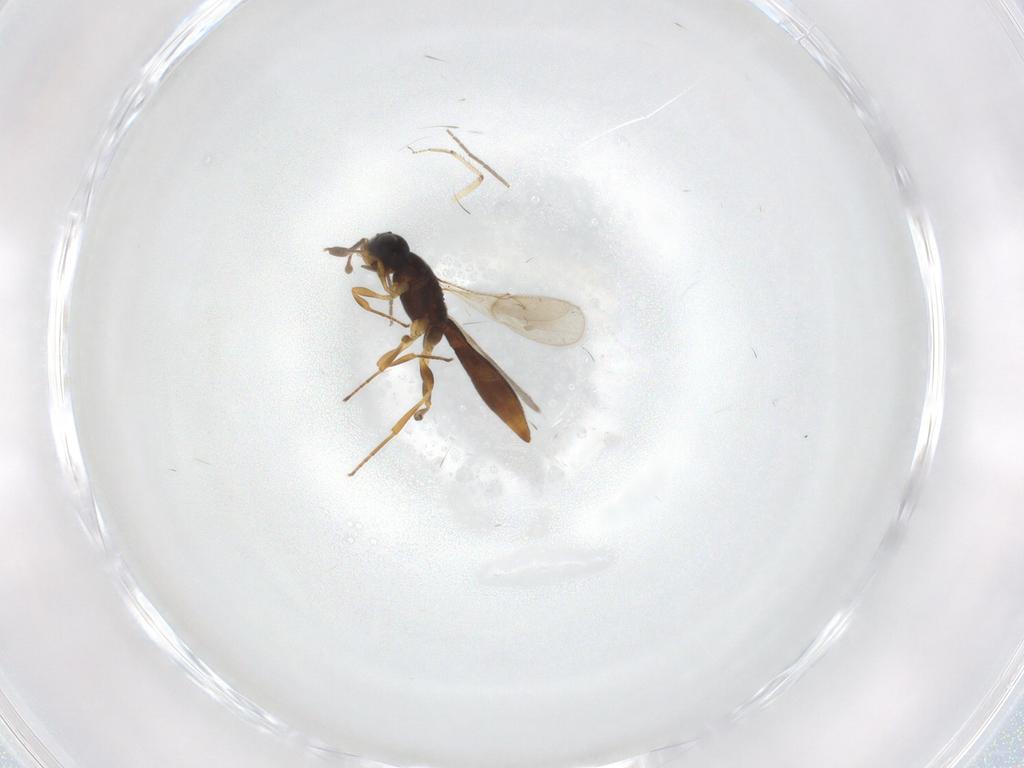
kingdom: Animalia
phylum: Arthropoda
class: Insecta
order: Hymenoptera
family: Scelionidae
